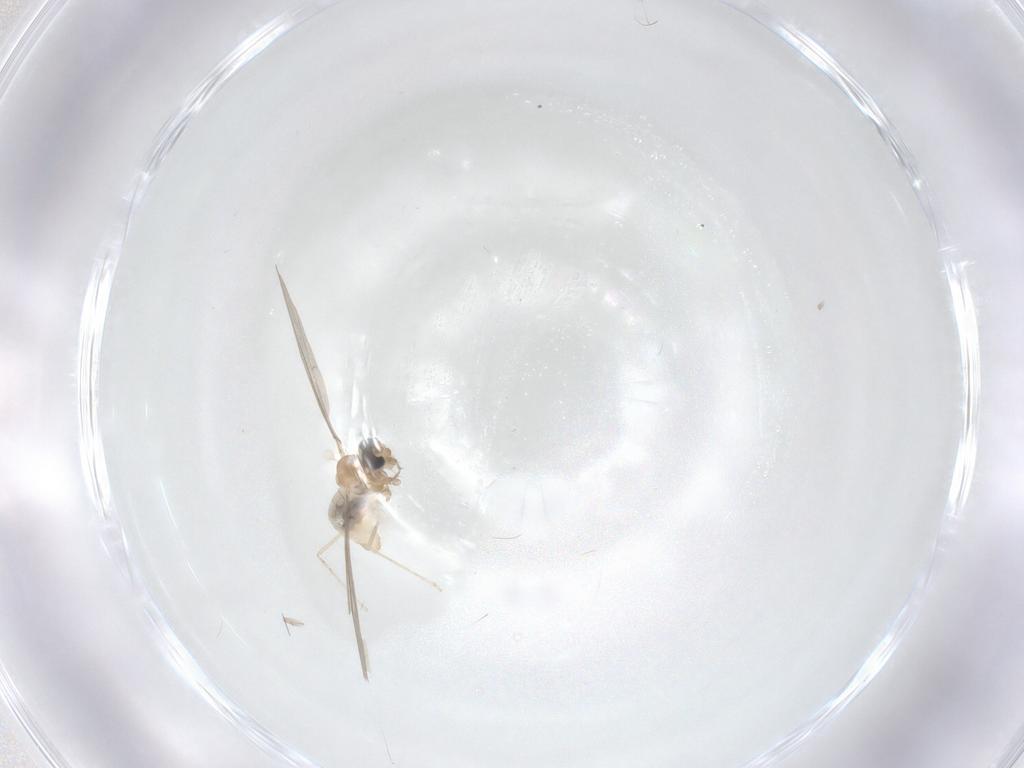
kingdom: Animalia
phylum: Arthropoda
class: Insecta
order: Diptera
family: Cecidomyiidae
